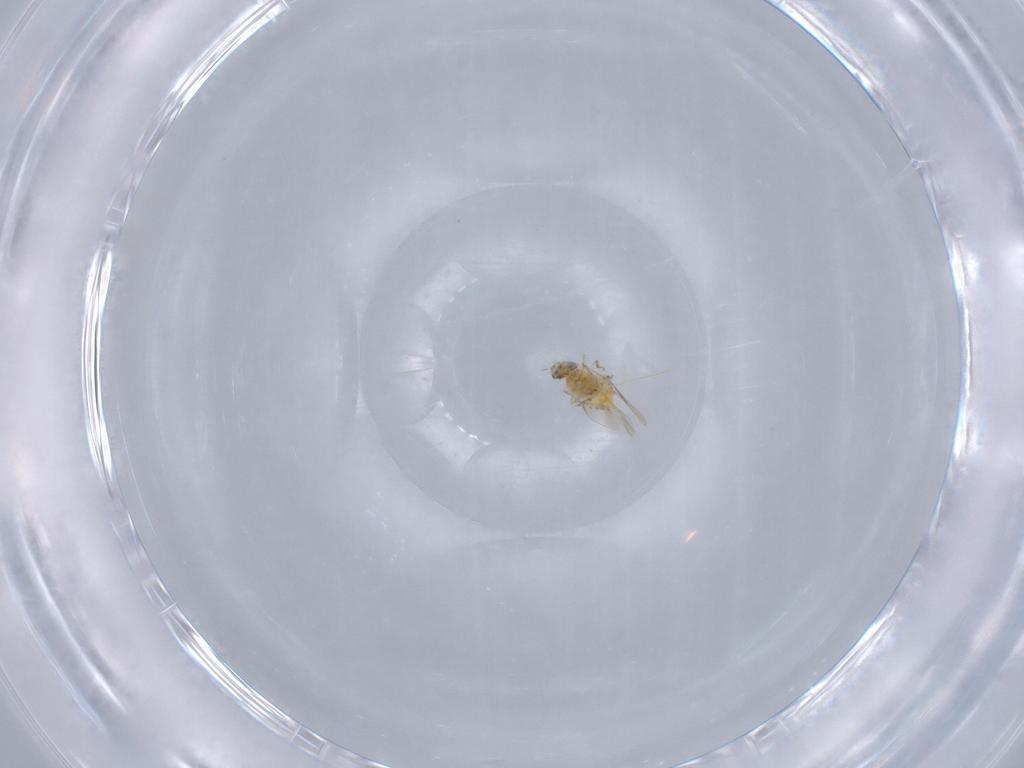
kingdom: Animalia
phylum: Arthropoda
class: Insecta
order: Hymenoptera
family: Aphelinidae
